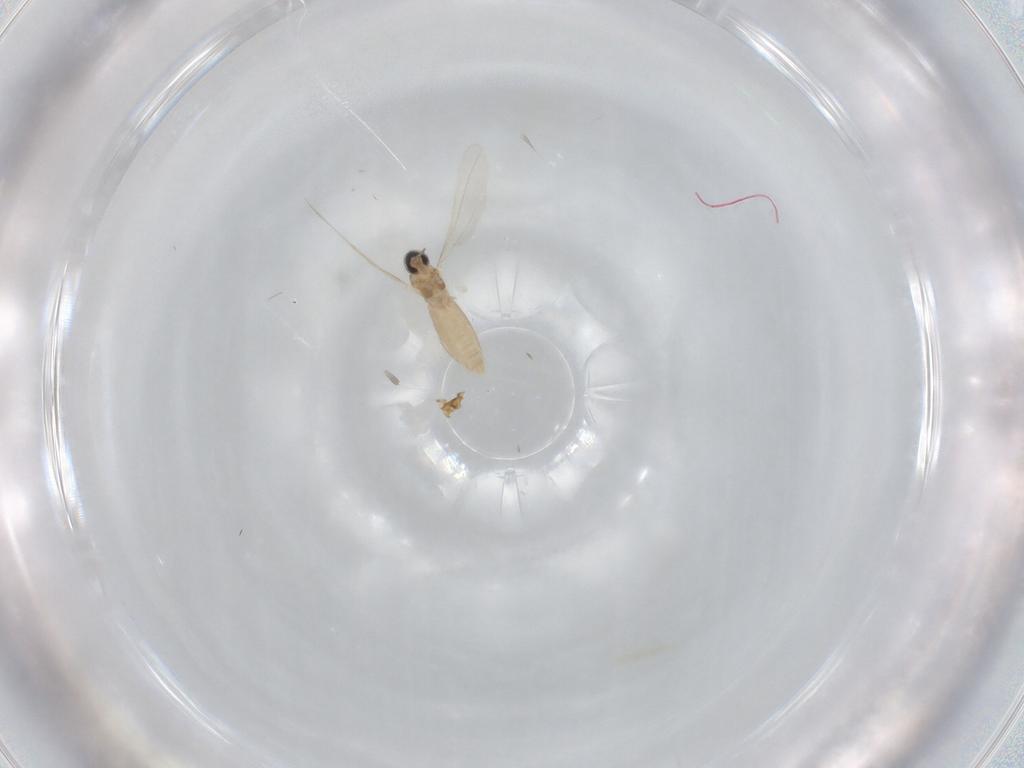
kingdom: Animalia
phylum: Arthropoda
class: Insecta
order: Diptera
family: Cecidomyiidae
